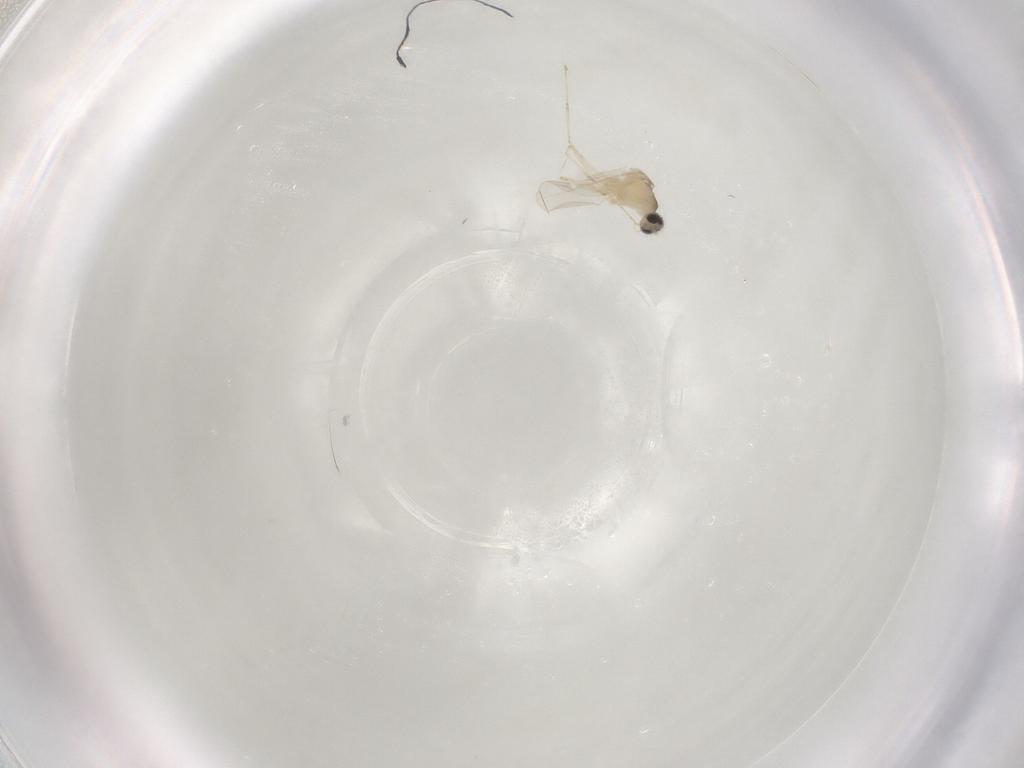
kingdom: Animalia
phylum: Arthropoda
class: Insecta
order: Diptera
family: Cecidomyiidae
